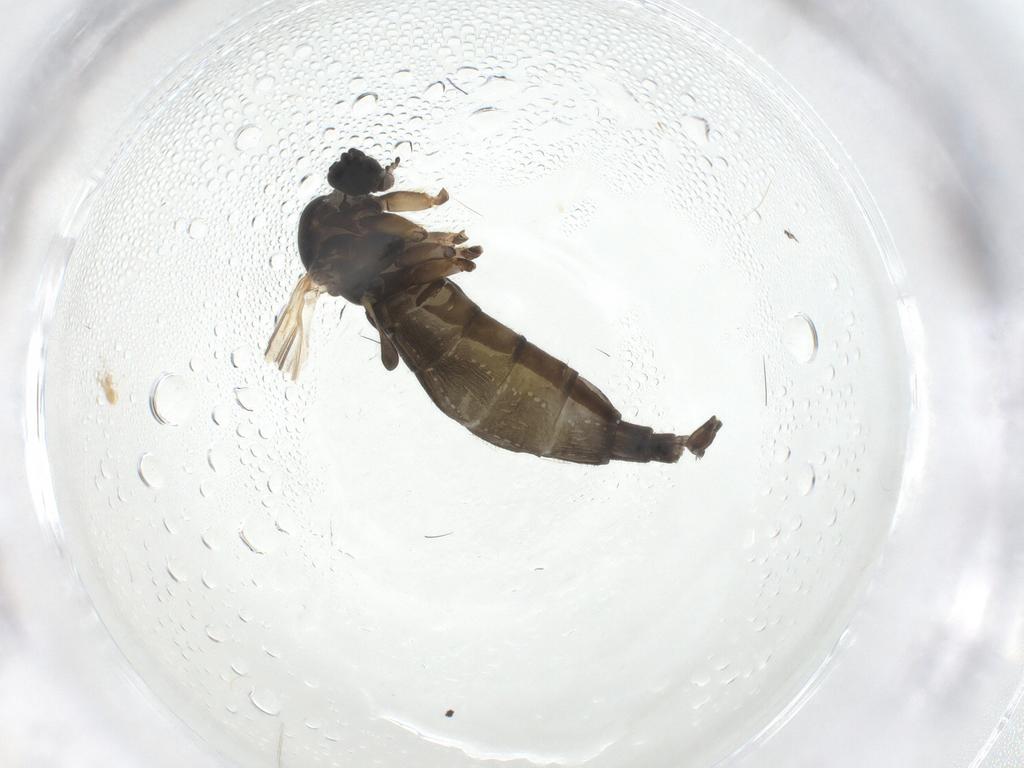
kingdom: Animalia
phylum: Arthropoda
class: Insecta
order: Diptera
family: Sciaridae
